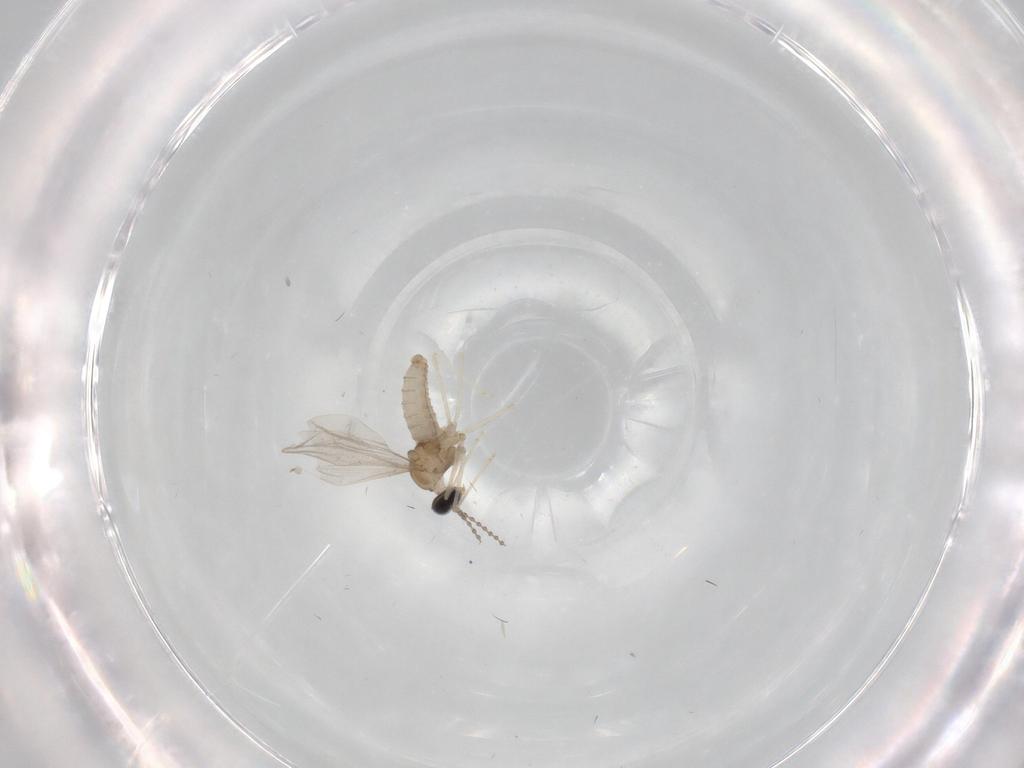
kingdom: Animalia
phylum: Arthropoda
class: Insecta
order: Diptera
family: Cecidomyiidae
